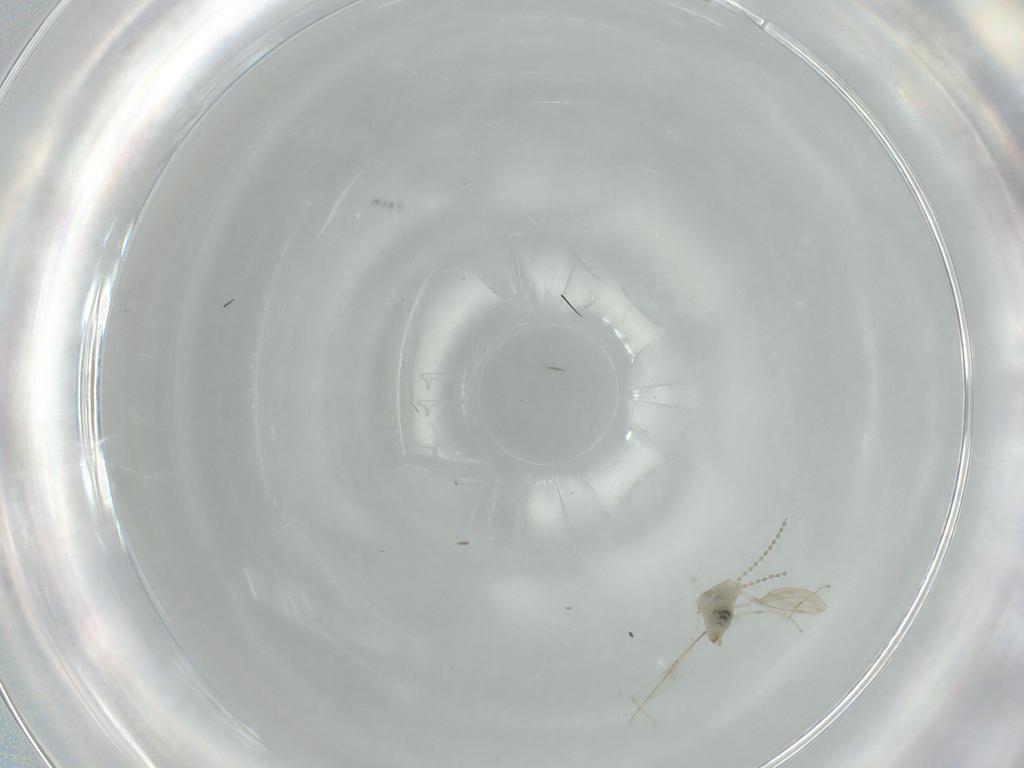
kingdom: Animalia
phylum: Arthropoda
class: Insecta
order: Diptera
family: Cecidomyiidae
